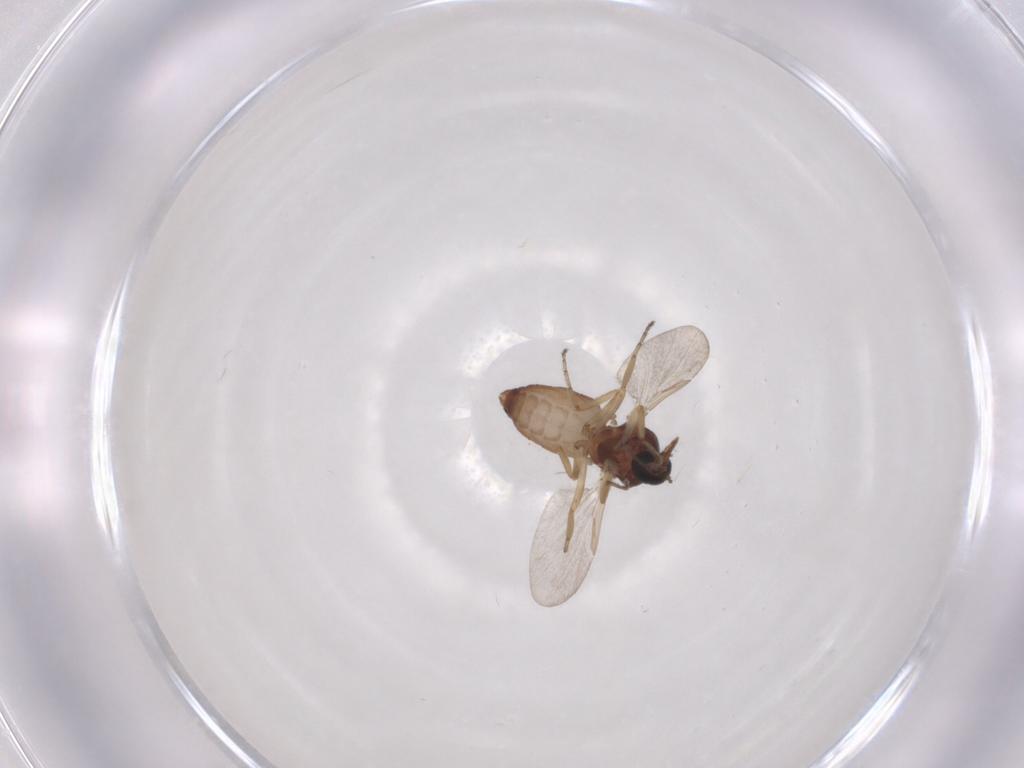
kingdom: Animalia
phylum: Arthropoda
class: Insecta
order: Diptera
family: Ceratopogonidae
